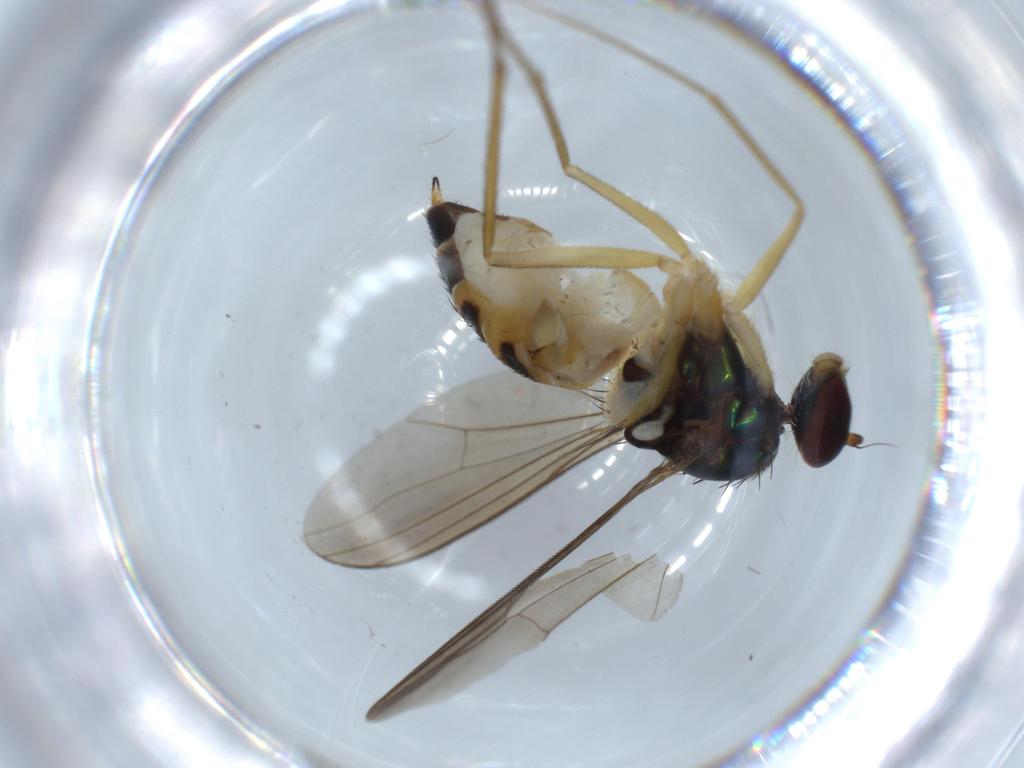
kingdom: Animalia
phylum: Arthropoda
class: Insecta
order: Diptera
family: Dolichopodidae
